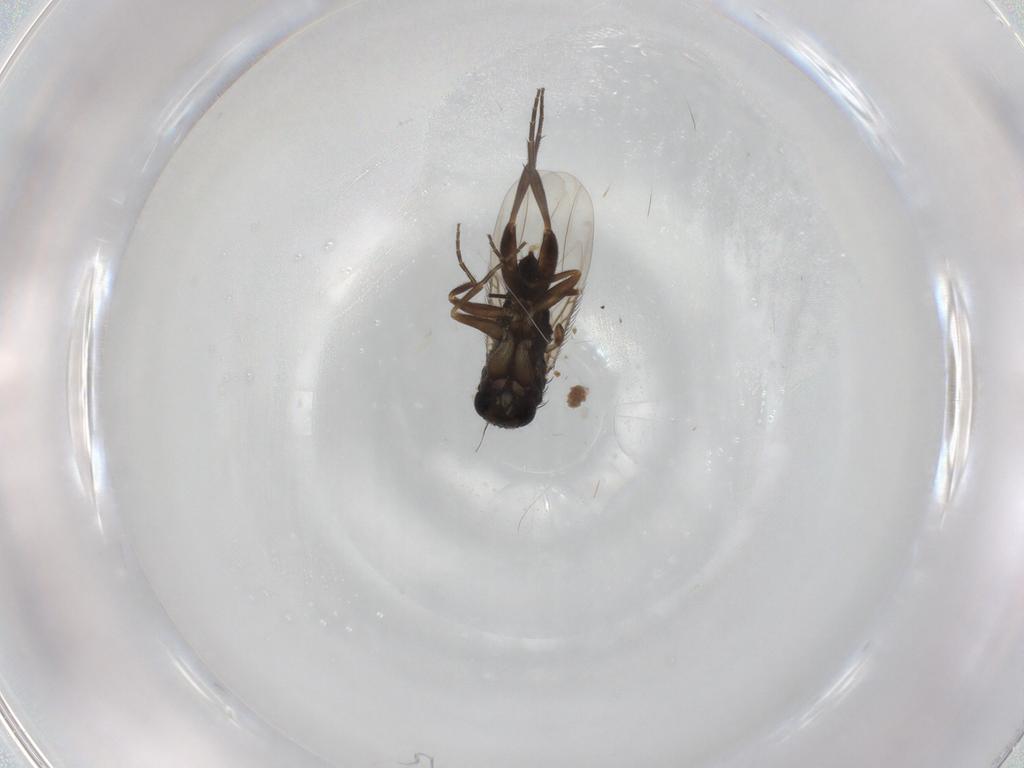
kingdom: Animalia
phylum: Arthropoda
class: Insecta
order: Diptera
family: Phoridae
